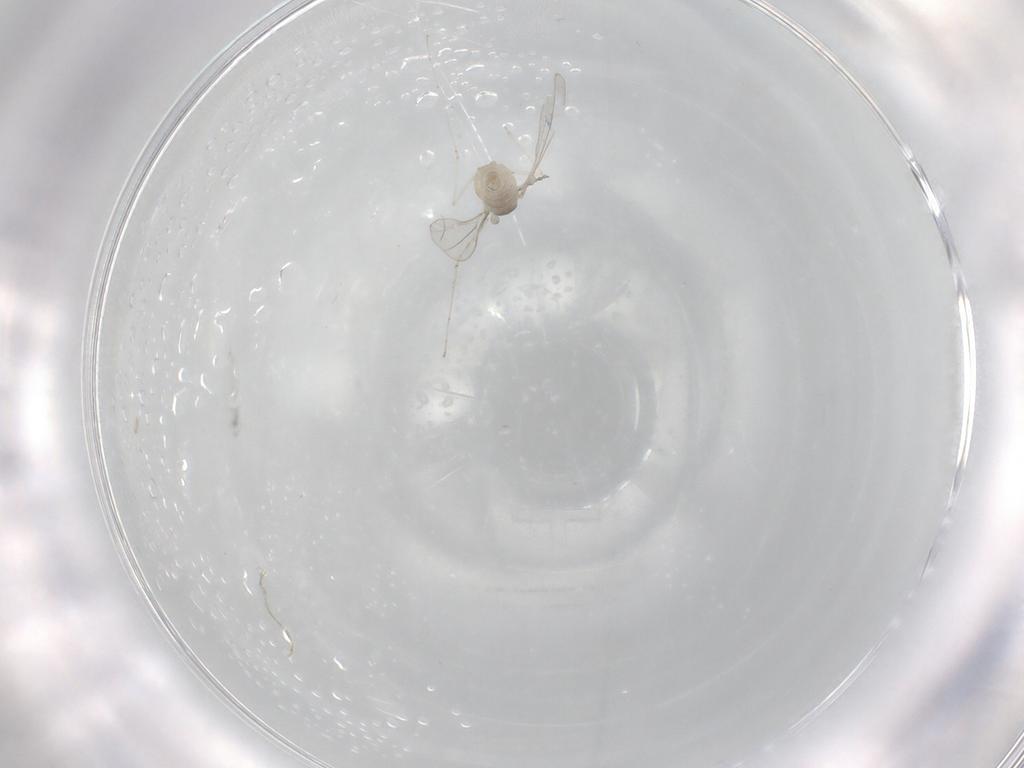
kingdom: Animalia
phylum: Arthropoda
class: Insecta
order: Diptera
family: Cecidomyiidae
